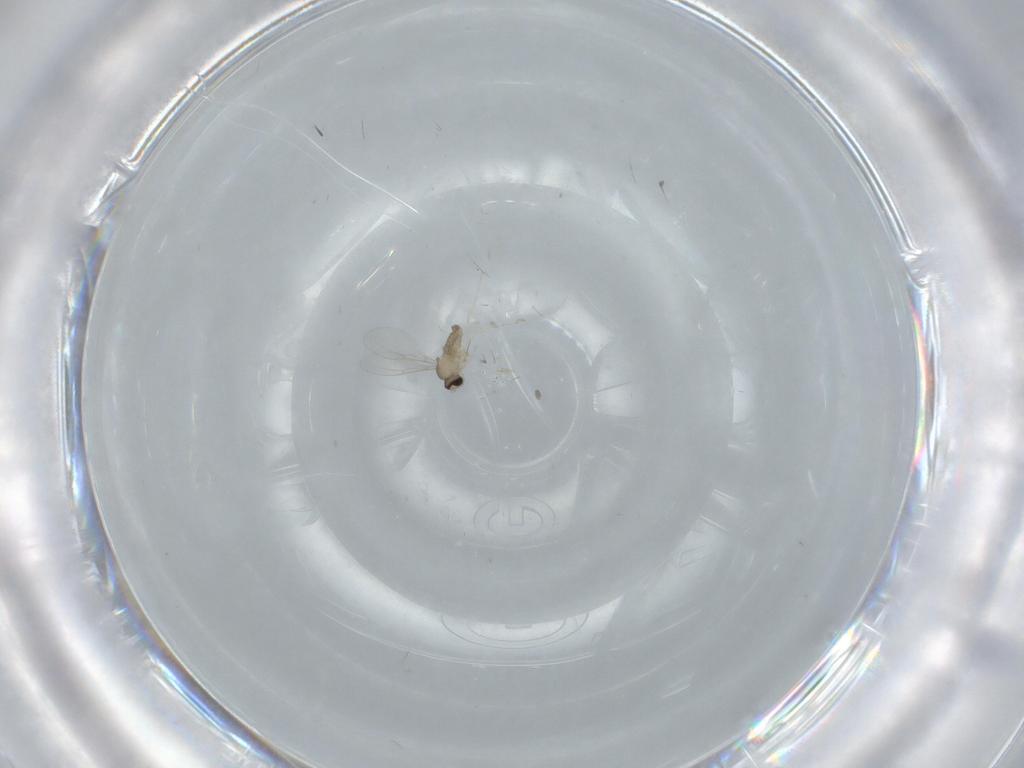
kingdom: Animalia
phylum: Arthropoda
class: Insecta
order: Diptera
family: Cecidomyiidae
